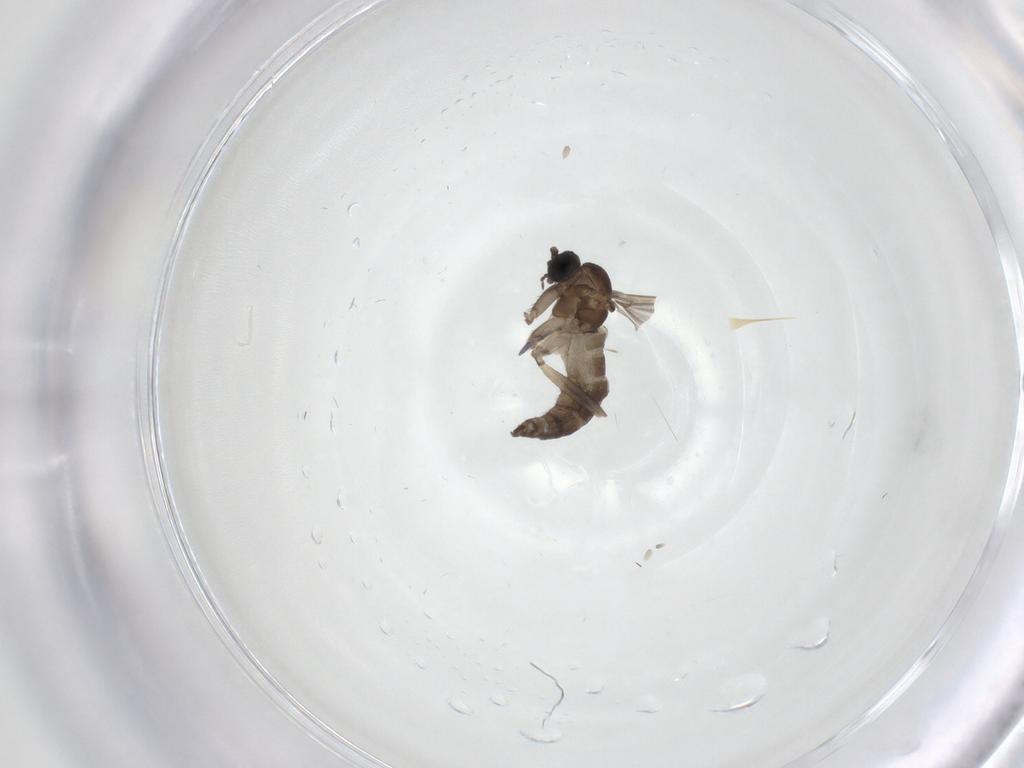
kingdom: Animalia
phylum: Arthropoda
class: Insecta
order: Diptera
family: Sciaridae
